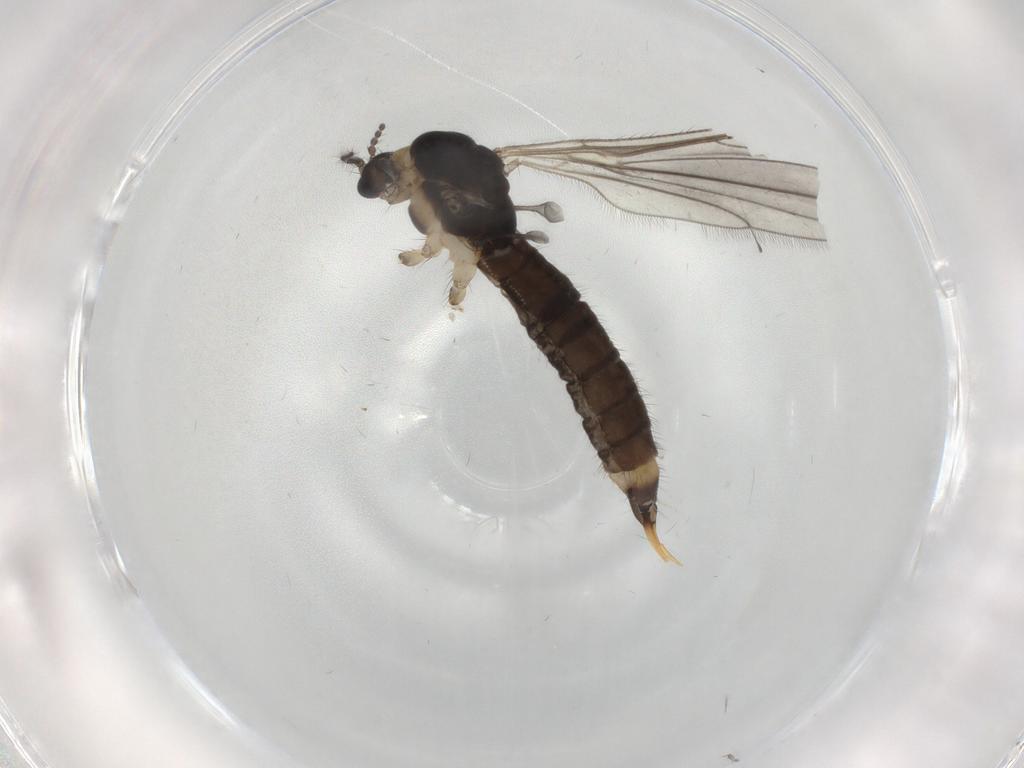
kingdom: Animalia
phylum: Arthropoda
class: Insecta
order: Diptera
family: Limoniidae
